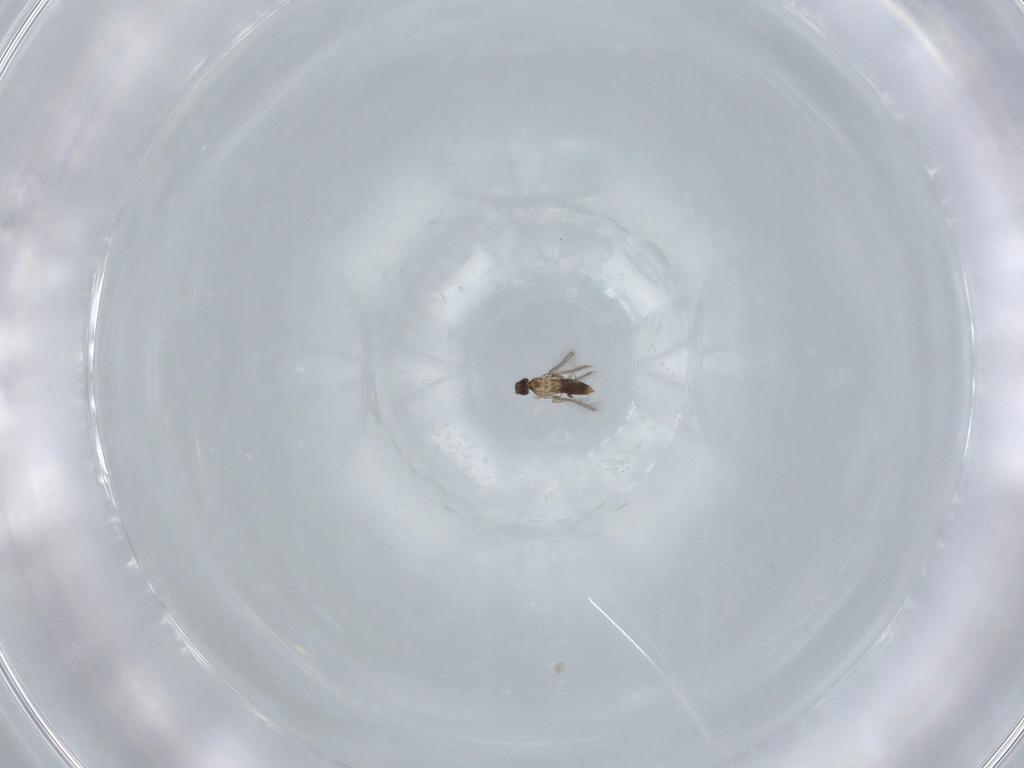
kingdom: Animalia
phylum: Arthropoda
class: Insecta
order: Hymenoptera
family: Mymaridae
